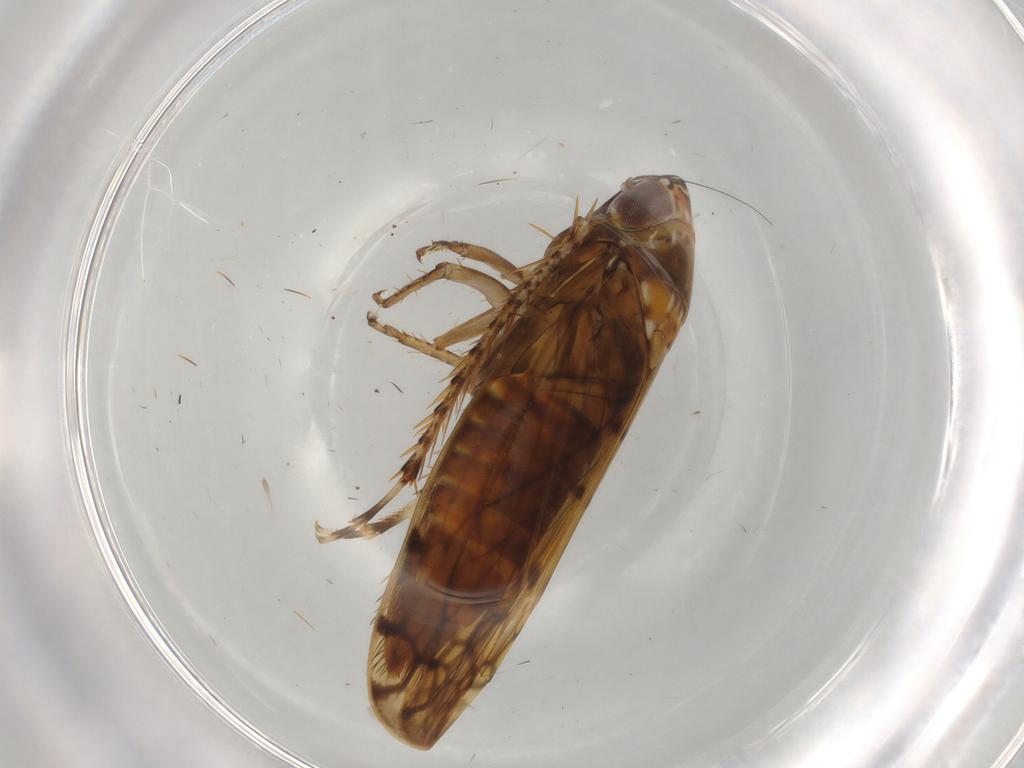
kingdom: Animalia
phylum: Arthropoda
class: Insecta
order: Hemiptera
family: Cicadellidae
